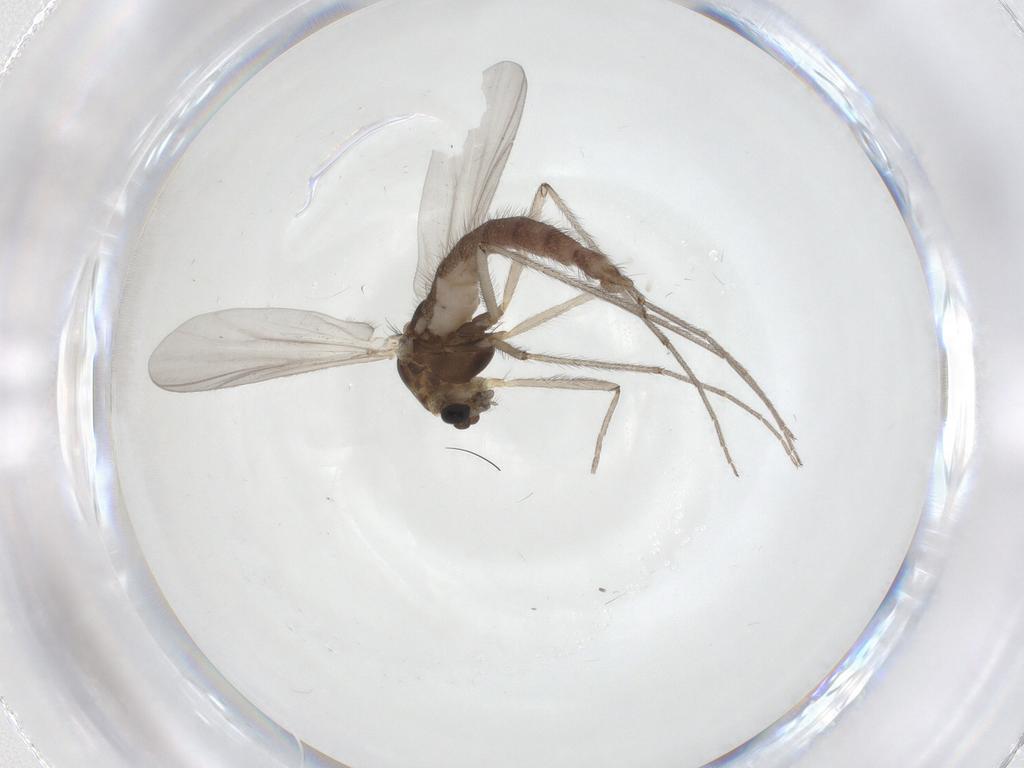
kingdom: Animalia
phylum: Arthropoda
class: Insecta
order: Diptera
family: Chironomidae
